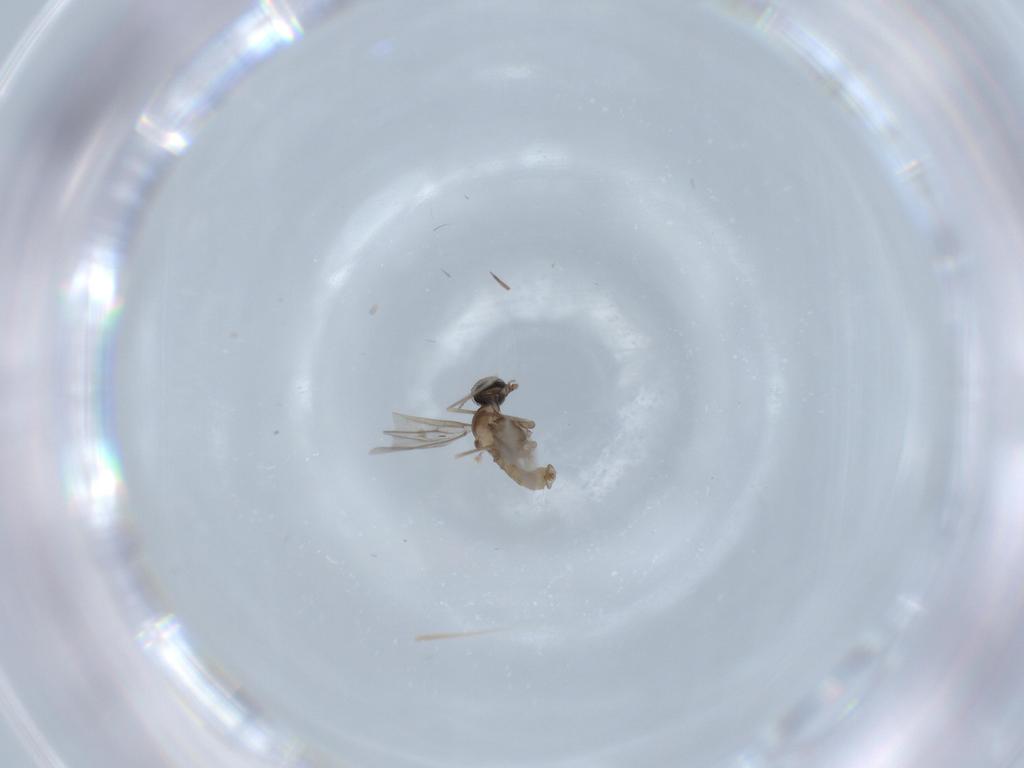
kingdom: Animalia
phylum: Arthropoda
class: Insecta
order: Diptera
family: Cecidomyiidae
